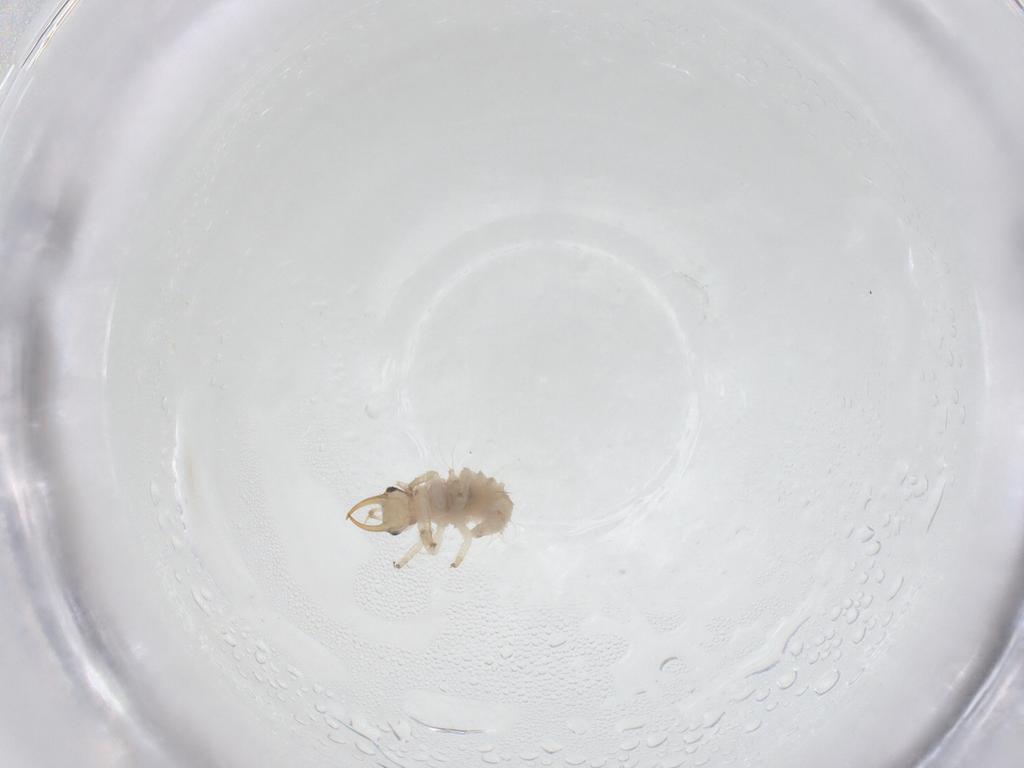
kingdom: Animalia
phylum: Arthropoda
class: Insecta
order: Neuroptera
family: Chrysopidae
